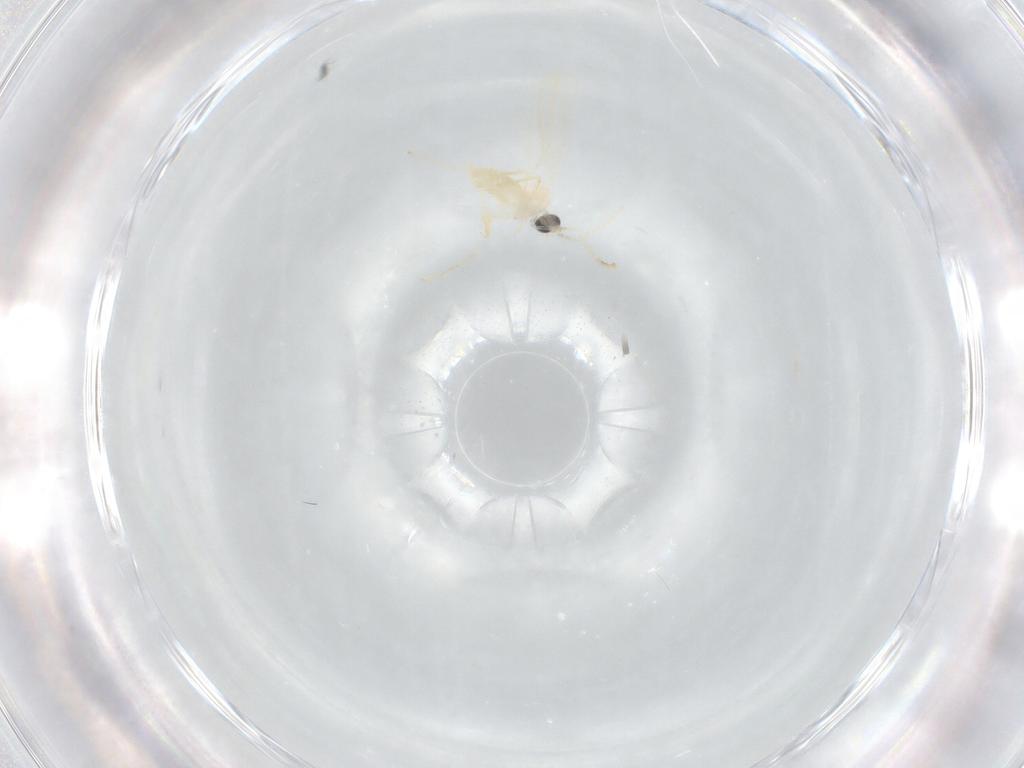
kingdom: Animalia
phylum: Arthropoda
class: Insecta
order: Diptera
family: Cecidomyiidae
